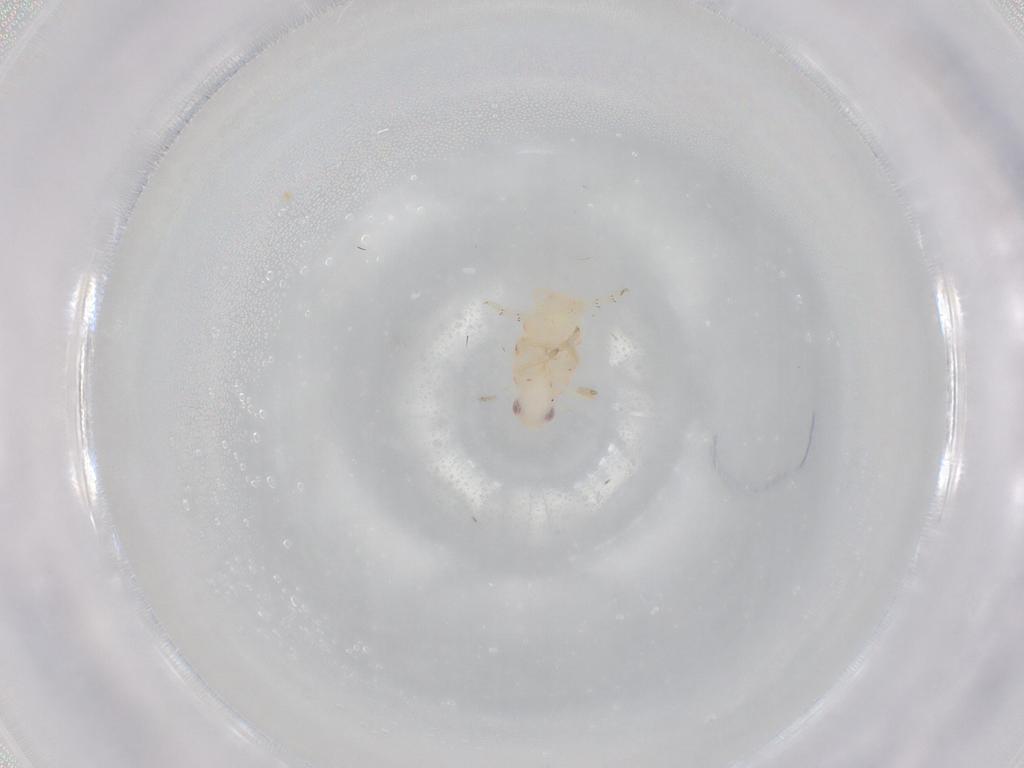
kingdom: Animalia
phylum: Arthropoda
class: Insecta
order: Hemiptera
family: Tropiduchidae
